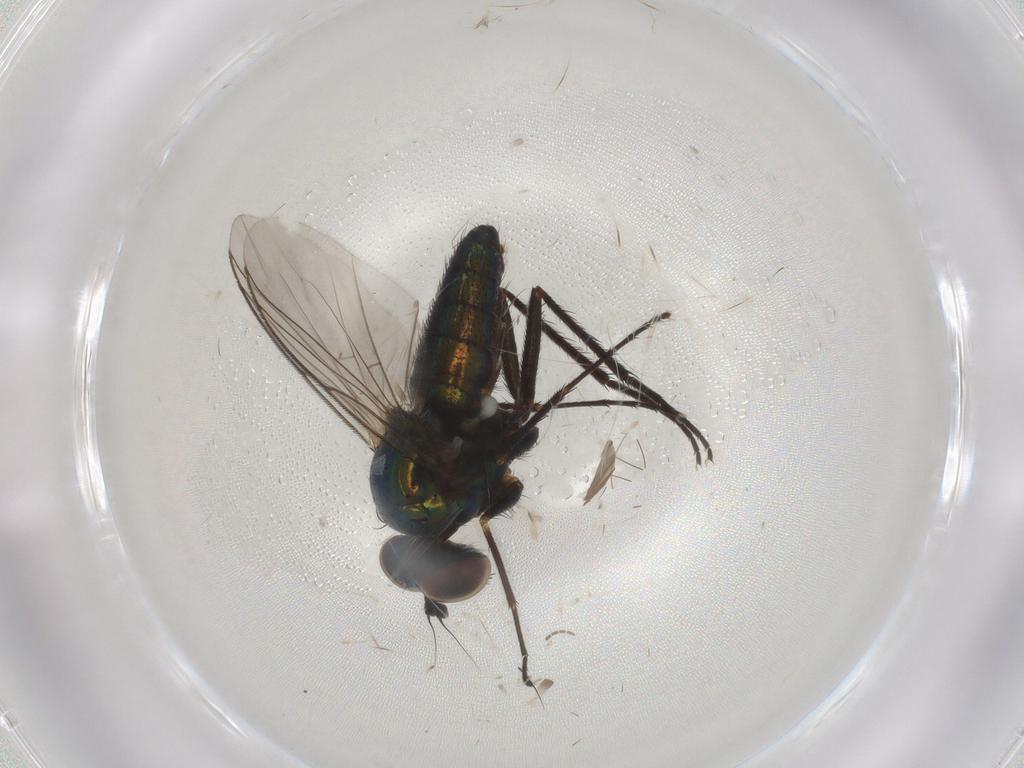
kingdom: Animalia
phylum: Arthropoda
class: Insecta
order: Diptera
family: Dolichopodidae
